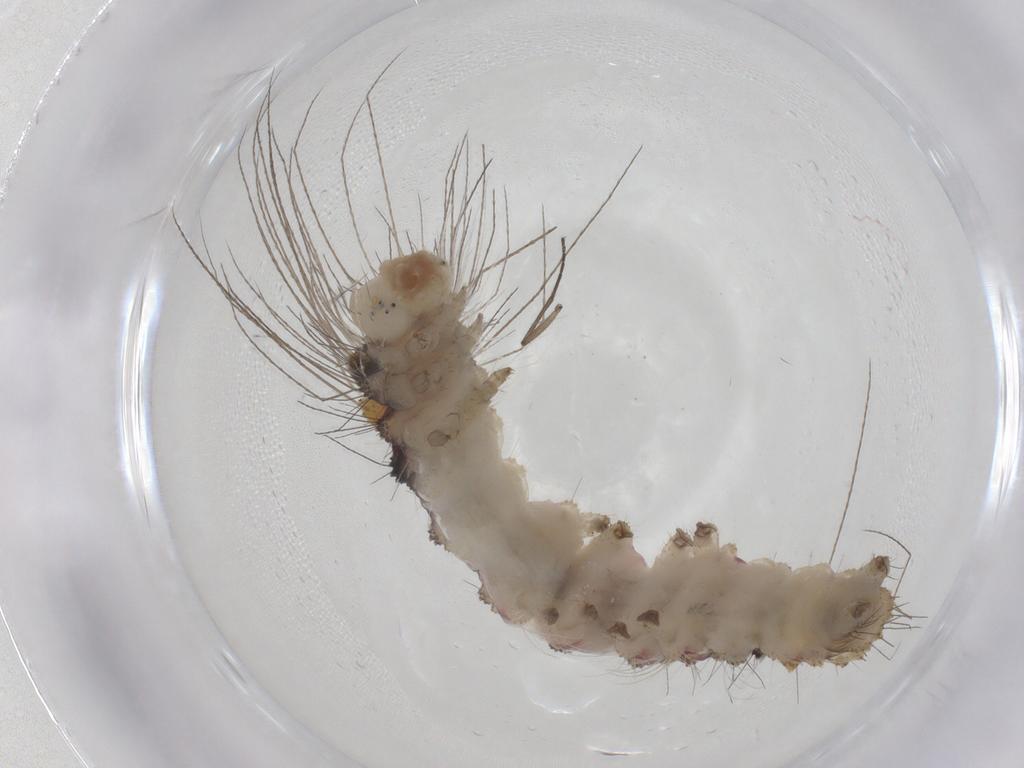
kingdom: Animalia
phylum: Arthropoda
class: Insecta
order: Lepidoptera
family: Erebidae
